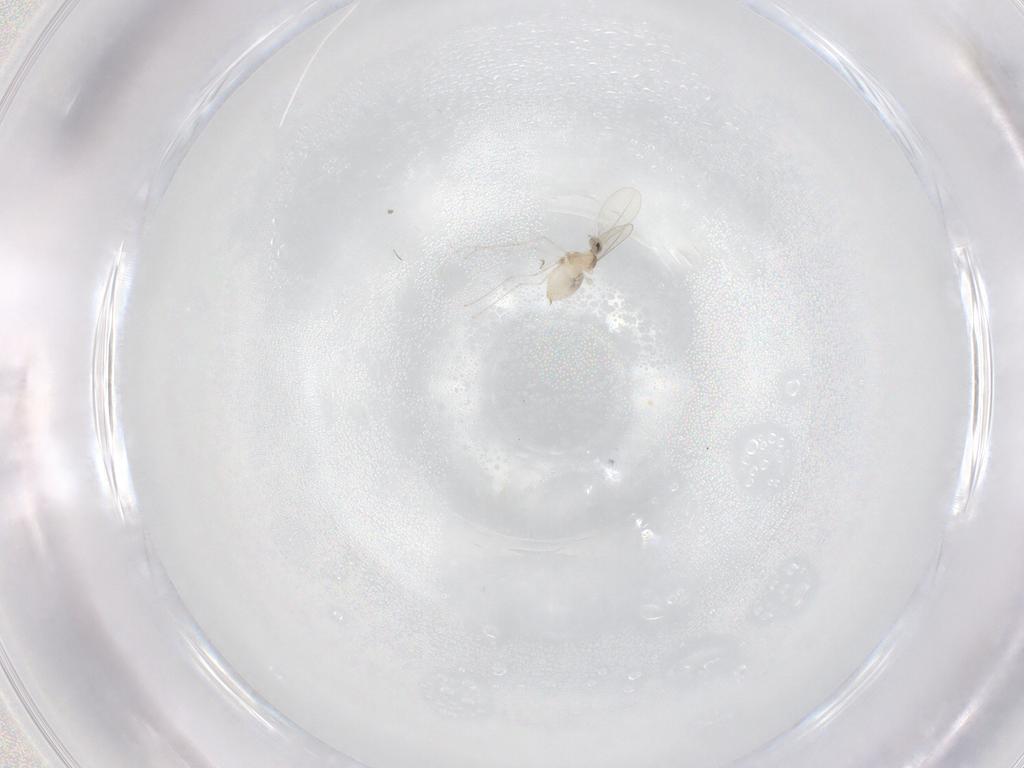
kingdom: Animalia
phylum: Arthropoda
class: Insecta
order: Diptera
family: Cecidomyiidae
